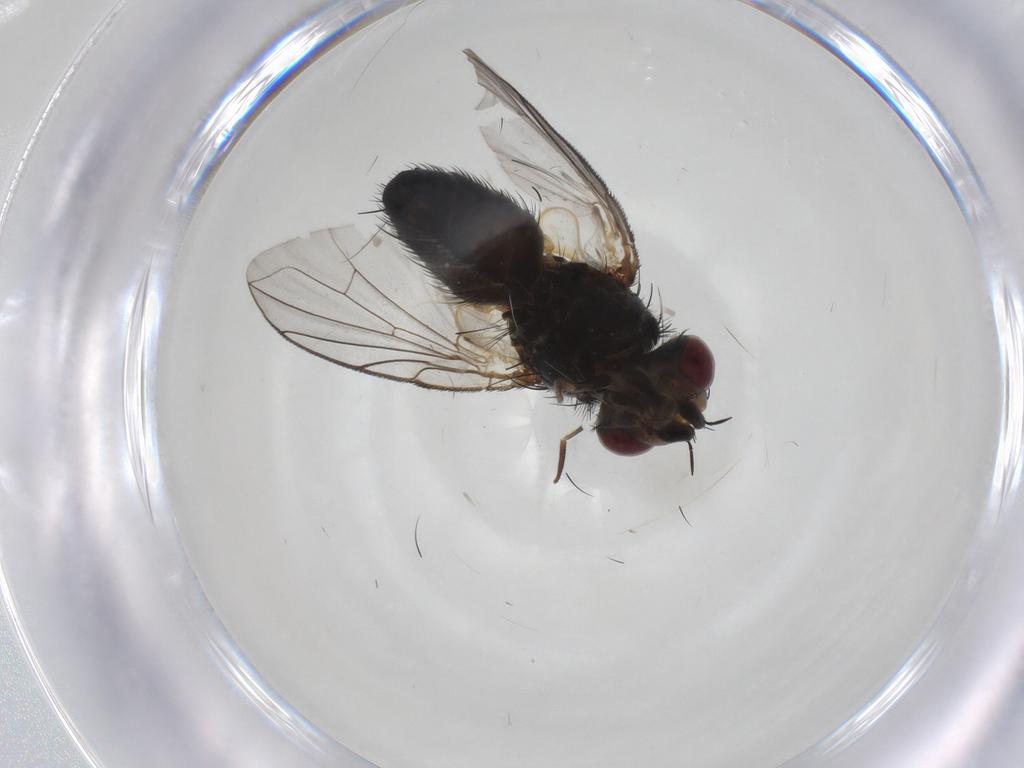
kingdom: Animalia
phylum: Arthropoda
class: Insecta
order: Diptera
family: Tachinidae
